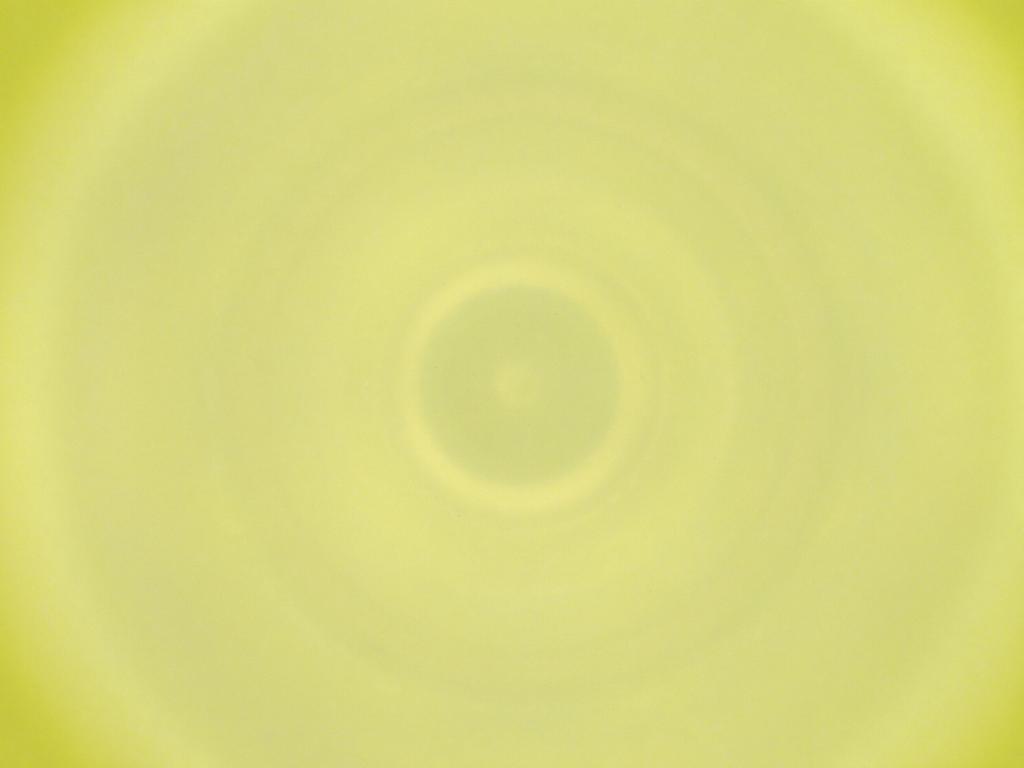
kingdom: Animalia
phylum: Arthropoda
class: Insecta
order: Diptera
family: Cecidomyiidae
